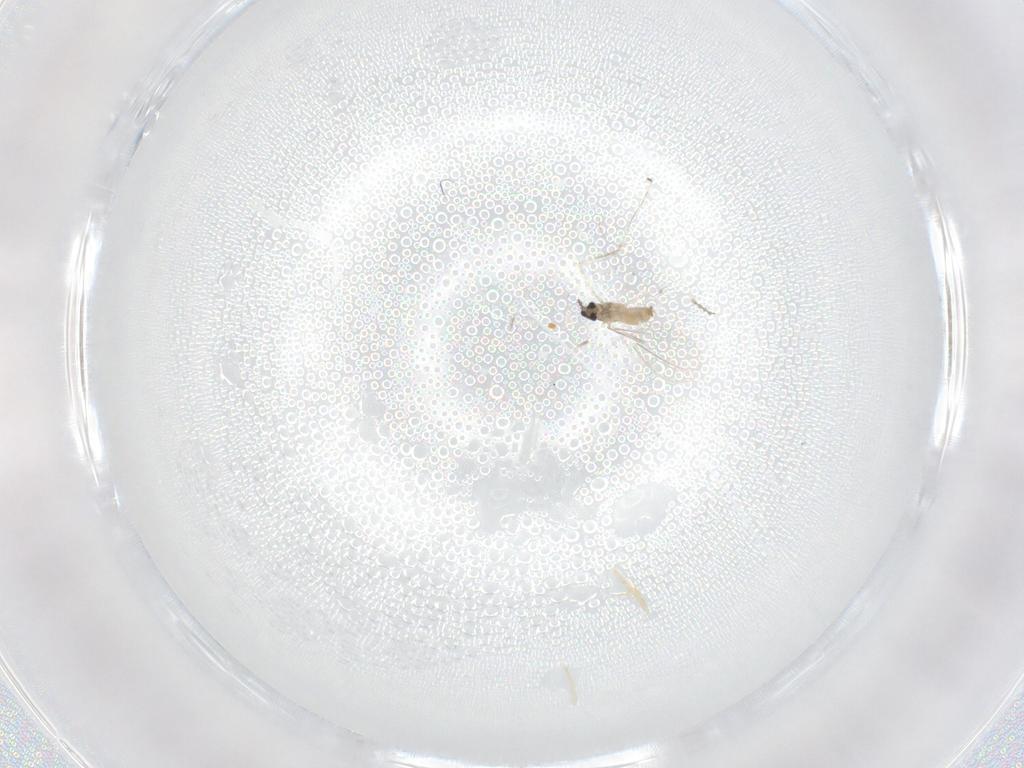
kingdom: Animalia
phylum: Arthropoda
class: Insecta
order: Diptera
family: Cecidomyiidae
